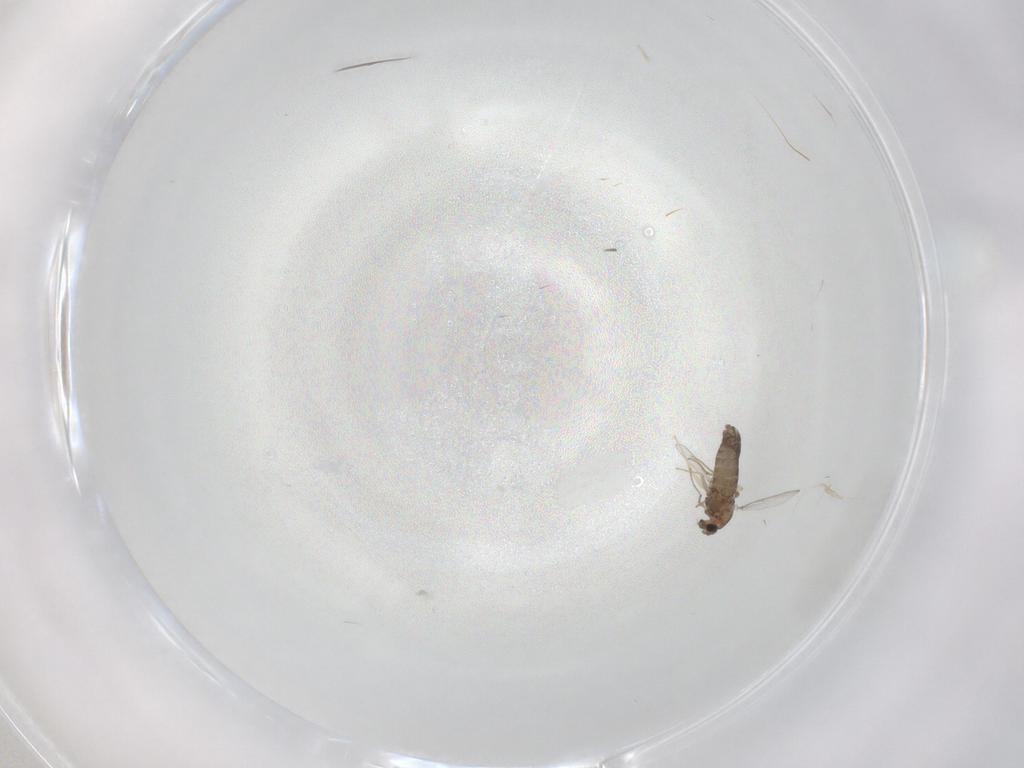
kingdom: Animalia
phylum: Arthropoda
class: Insecta
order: Diptera
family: Chironomidae
